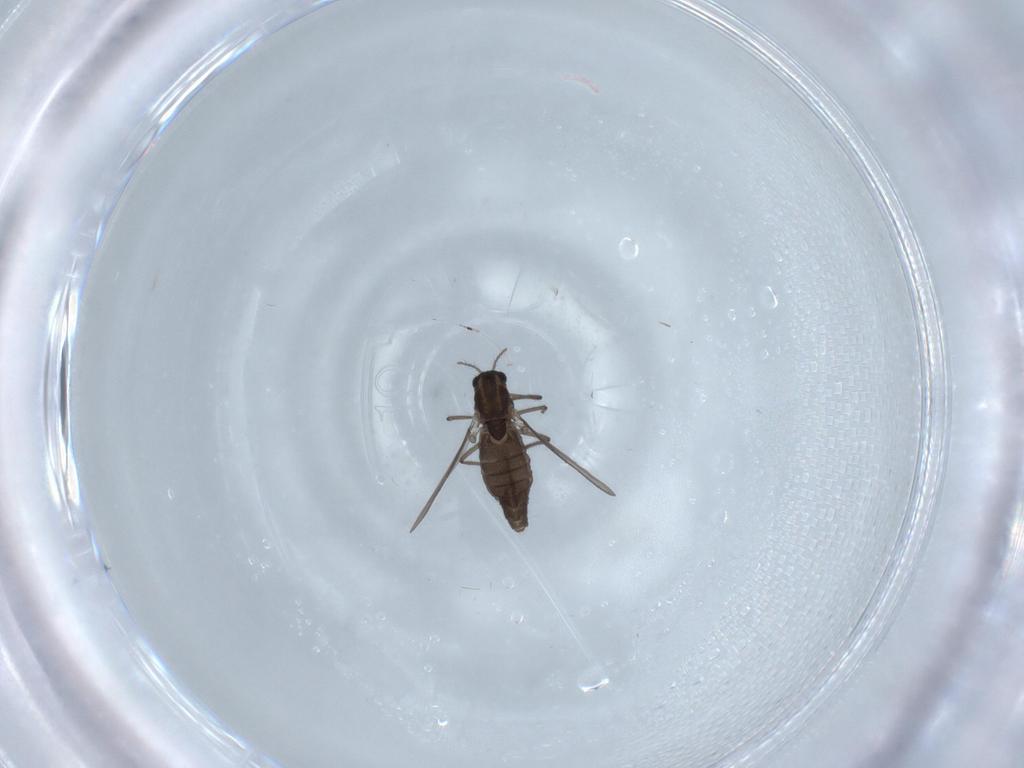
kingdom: Animalia
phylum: Arthropoda
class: Insecta
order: Diptera
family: Chironomidae
